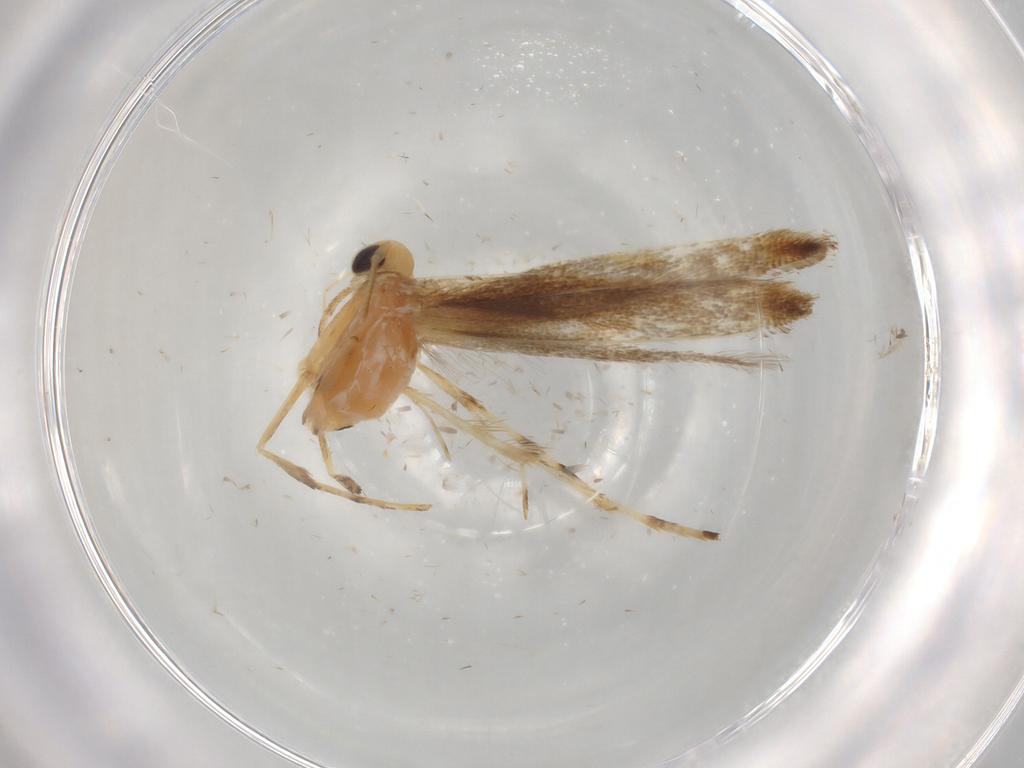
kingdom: Animalia
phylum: Arthropoda
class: Insecta
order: Lepidoptera
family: Gracillariidae
